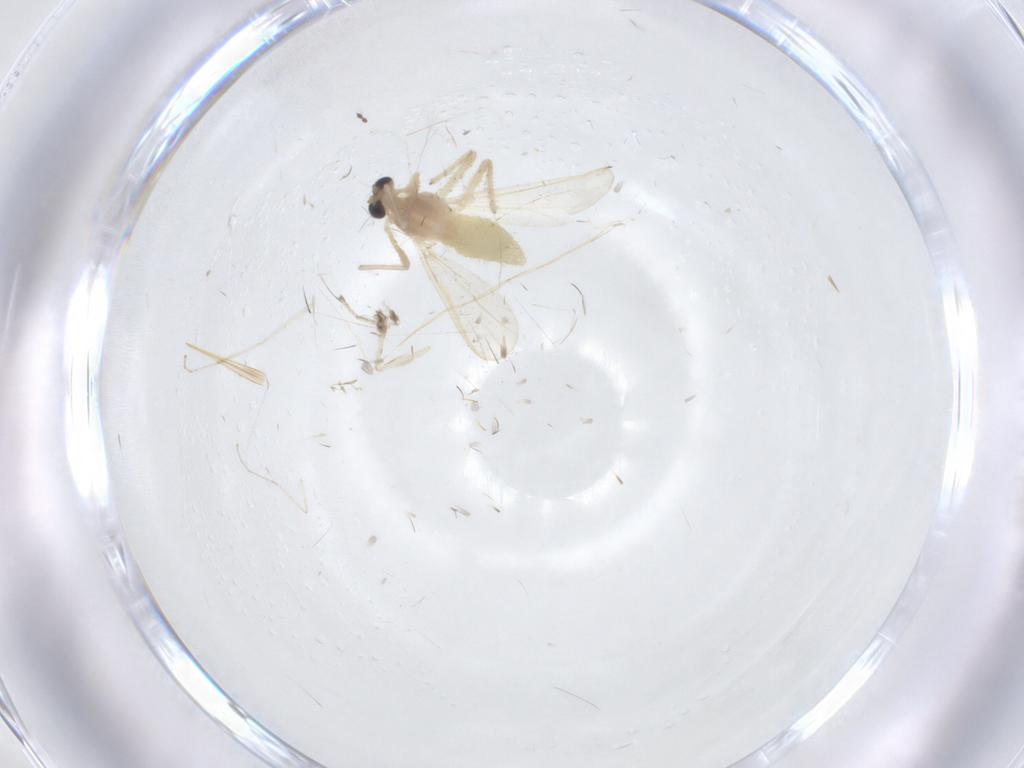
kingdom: Animalia
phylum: Arthropoda
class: Insecta
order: Diptera
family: Chironomidae
